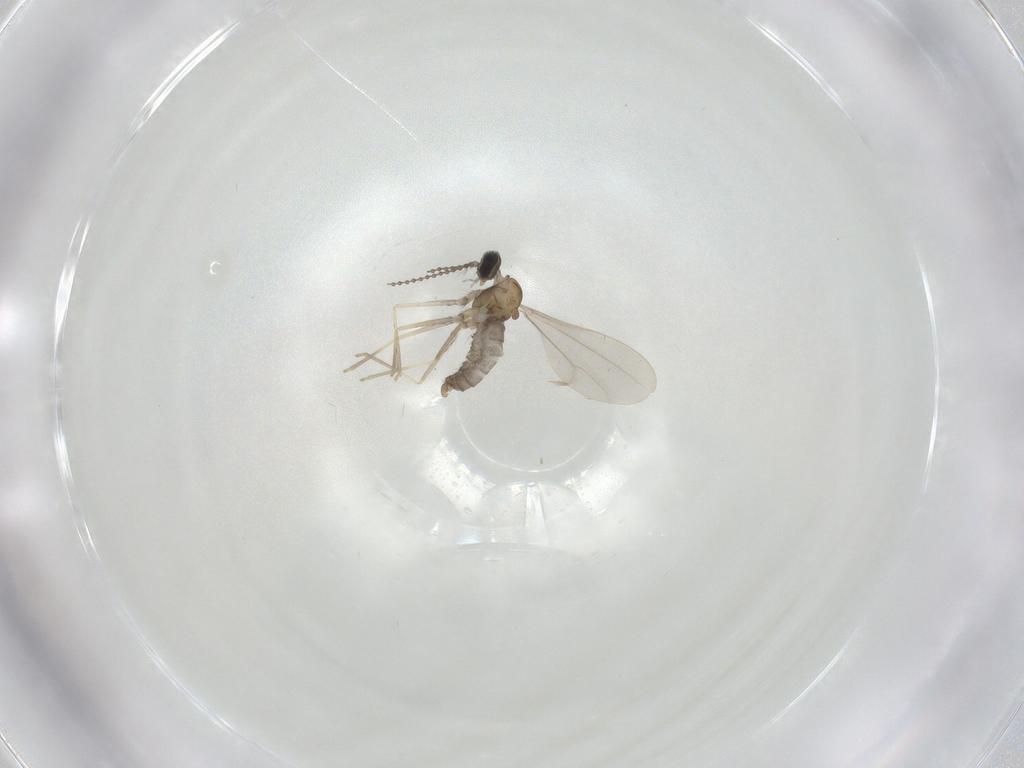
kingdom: Animalia
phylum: Arthropoda
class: Insecta
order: Diptera
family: Cecidomyiidae
